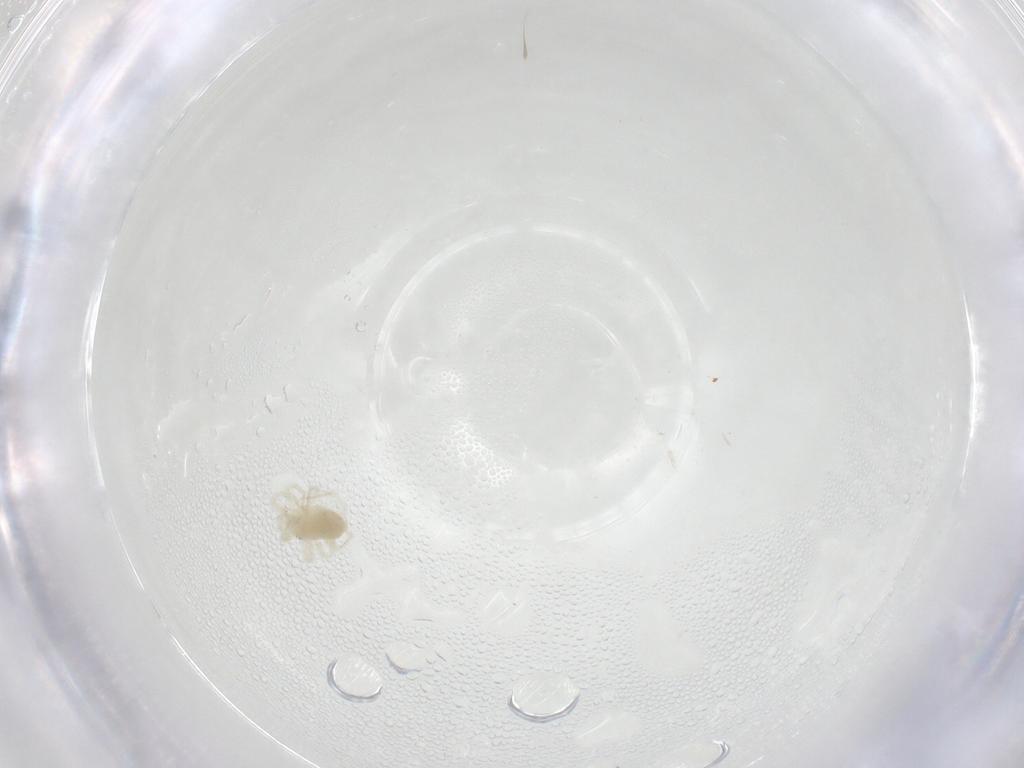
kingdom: Animalia
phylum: Arthropoda
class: Arachnida
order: Trombidiformes
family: Anystidae
